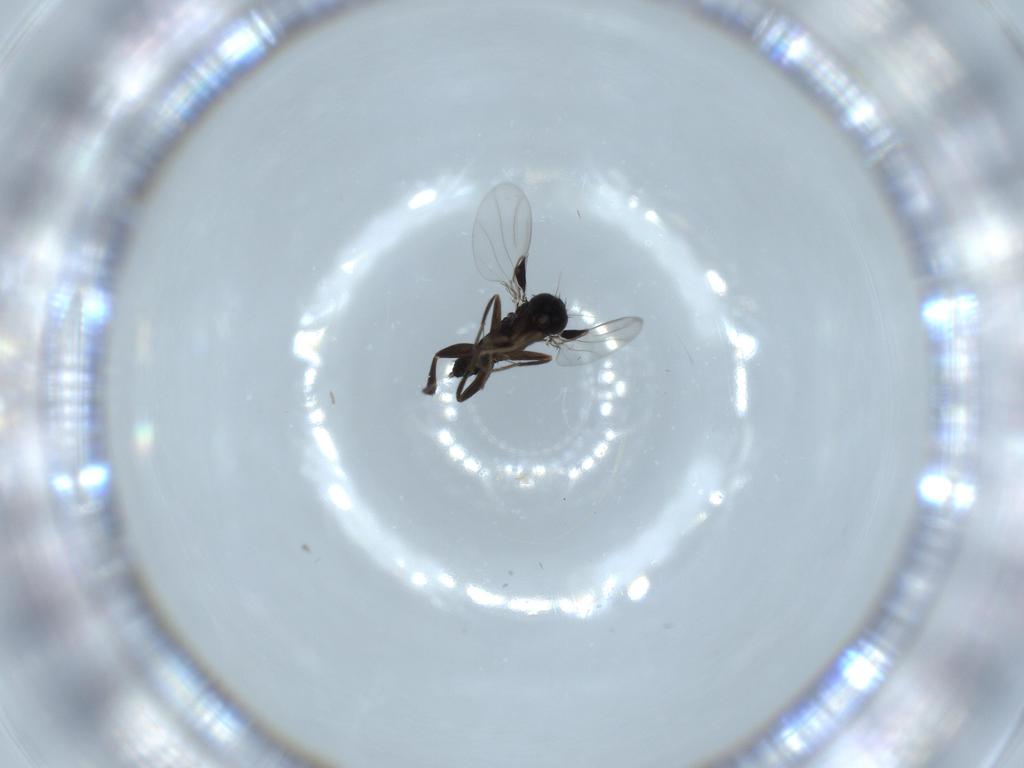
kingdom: Animalia
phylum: Arthropoda
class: Insecta
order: Diptera
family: Phoridae
